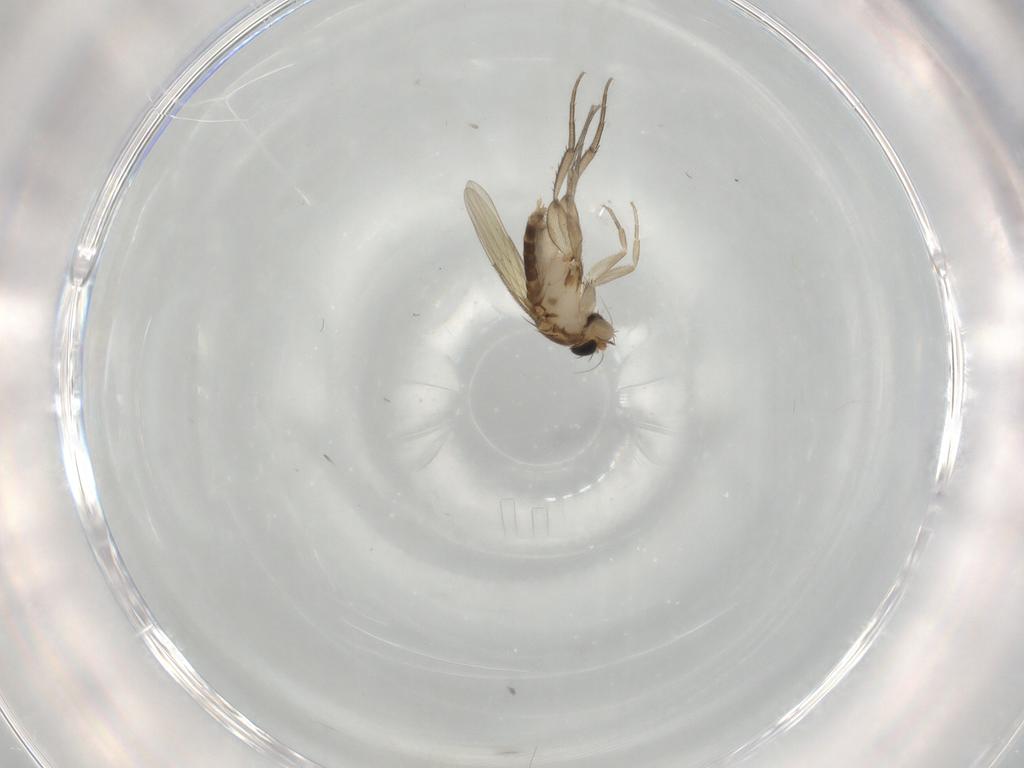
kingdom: Animalia
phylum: Arthropoda
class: Insecta
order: Diptera
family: Phoridae
